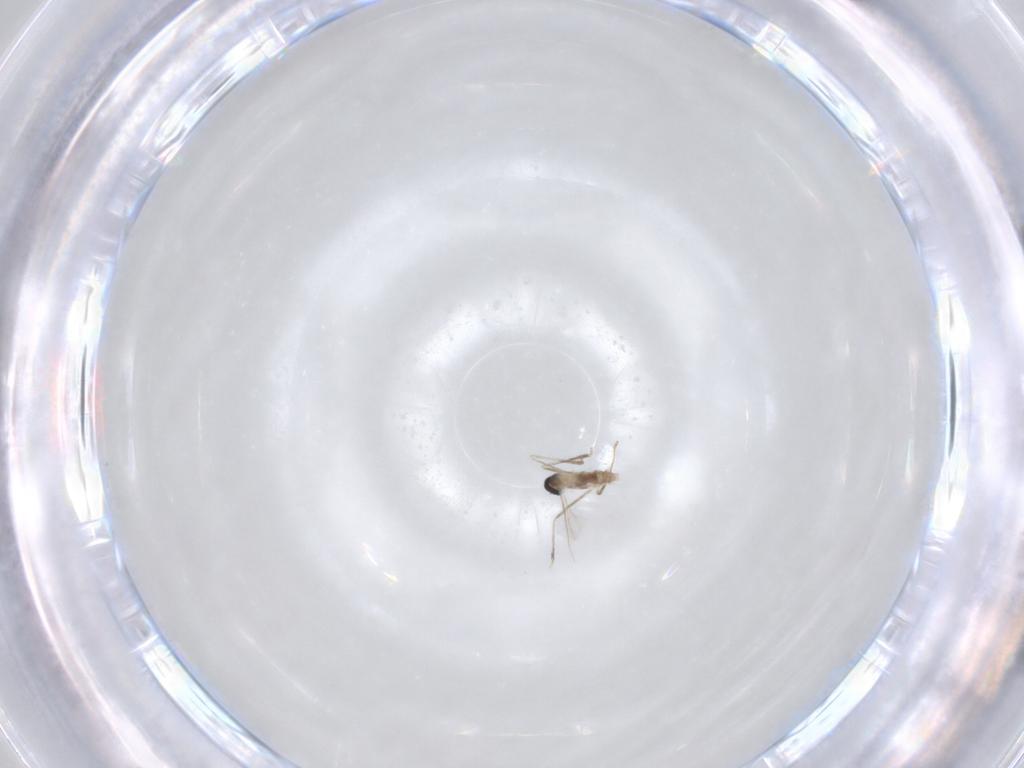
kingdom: Animalia
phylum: Arthropoda
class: Insecta
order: Diptera
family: Cecidomyiidae
